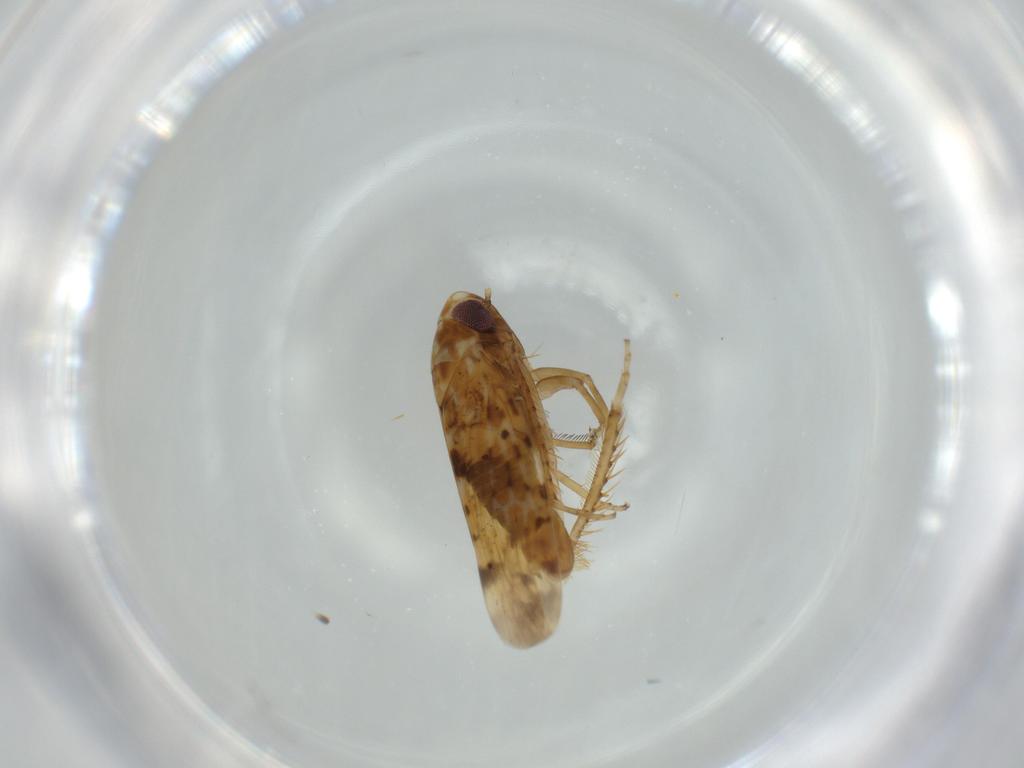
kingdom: Animalia
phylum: Arthropoda
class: Insecta
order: Hemiptera
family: Cicadellidae
